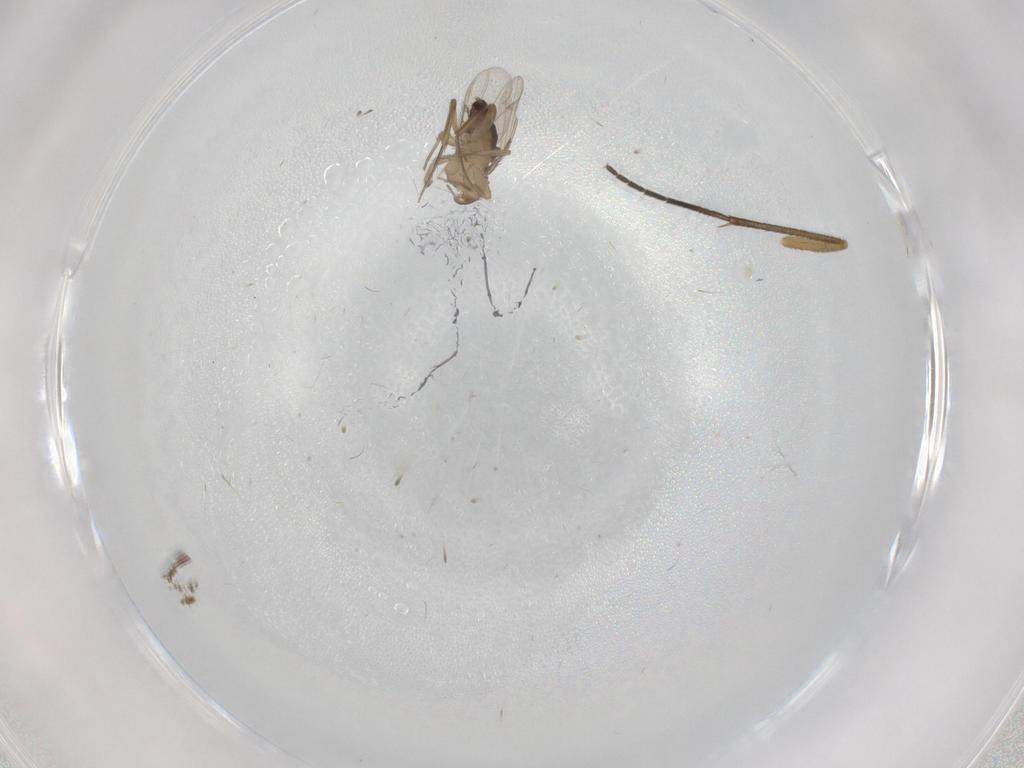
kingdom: Animalia
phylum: Arthropoda
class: Insecta
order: Diptera
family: Phoridae
